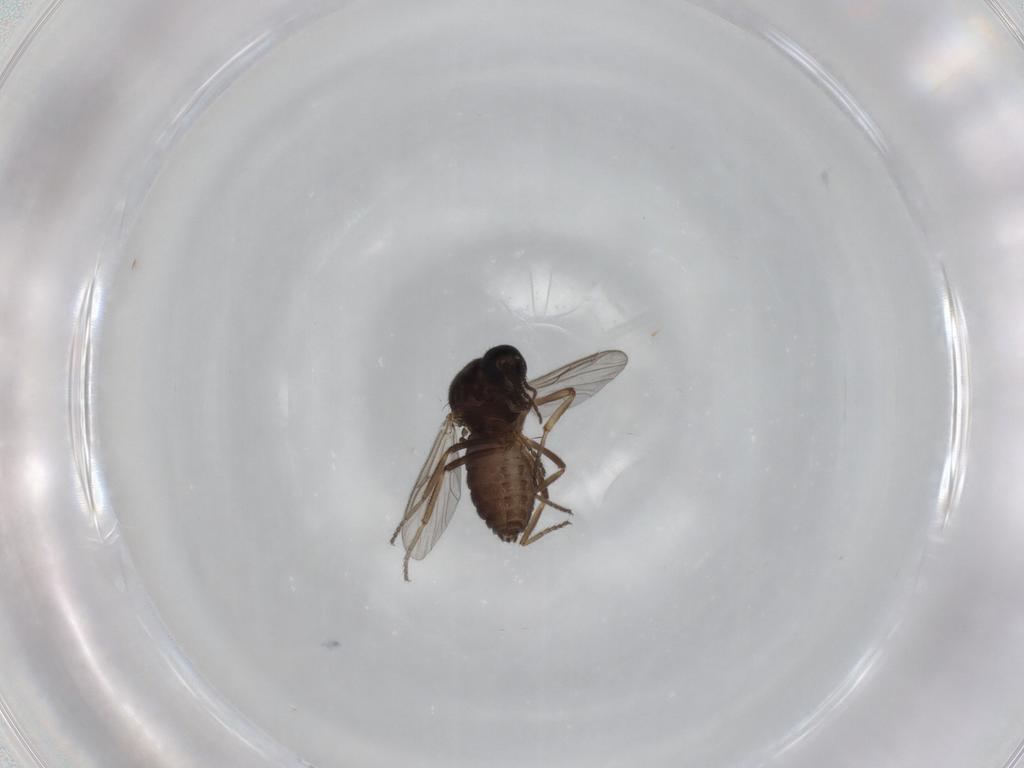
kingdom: Animalia
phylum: Arthropoda
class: Insecta
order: Diptera
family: Ceratopogonidae
